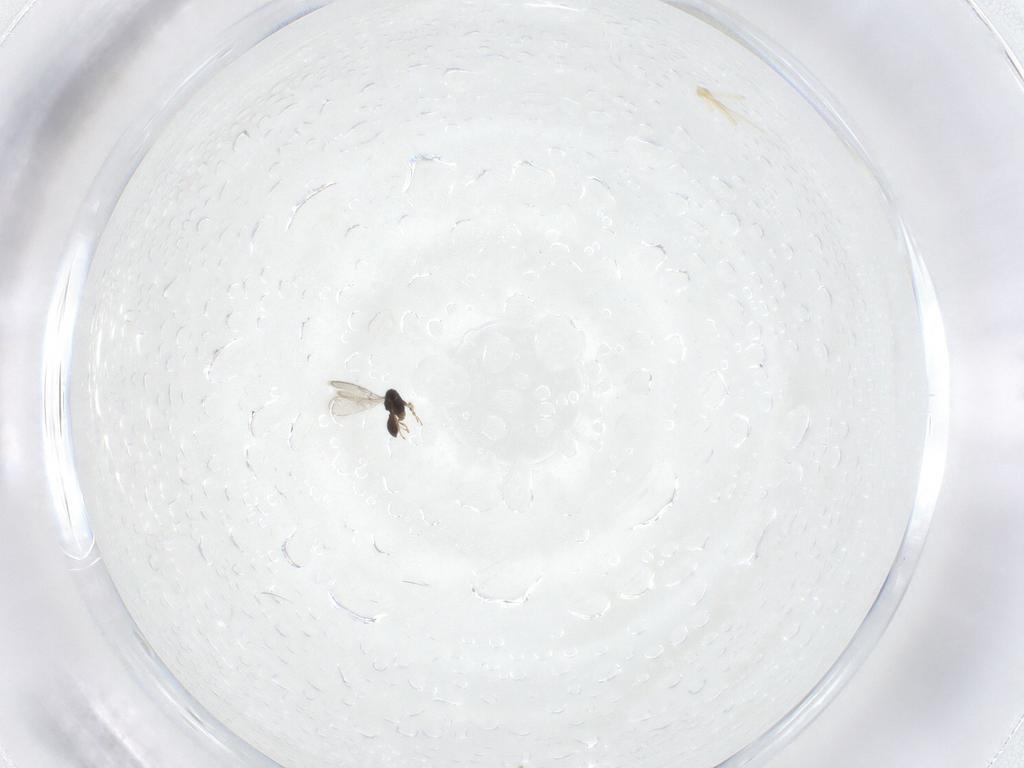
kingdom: Animalia
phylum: Arthropoda
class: Insecta
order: Hymenoptera
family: Scelionidae
